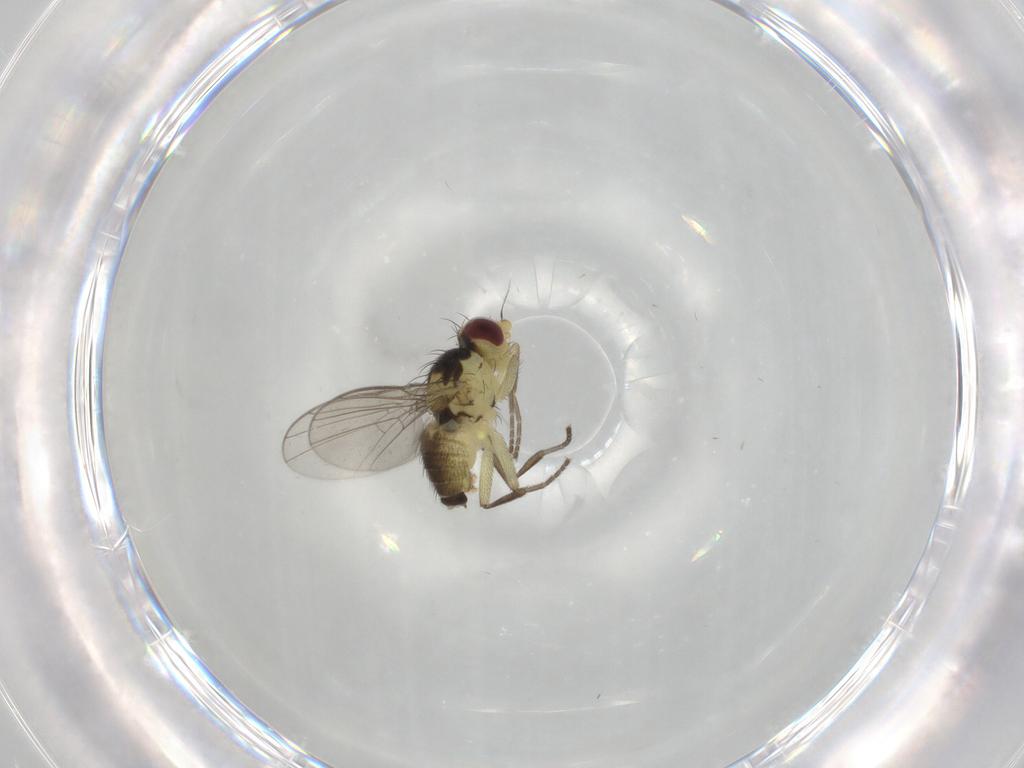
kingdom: Animalia
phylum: Arthropoda
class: Insecta
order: Diptera
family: Agromyzidae
